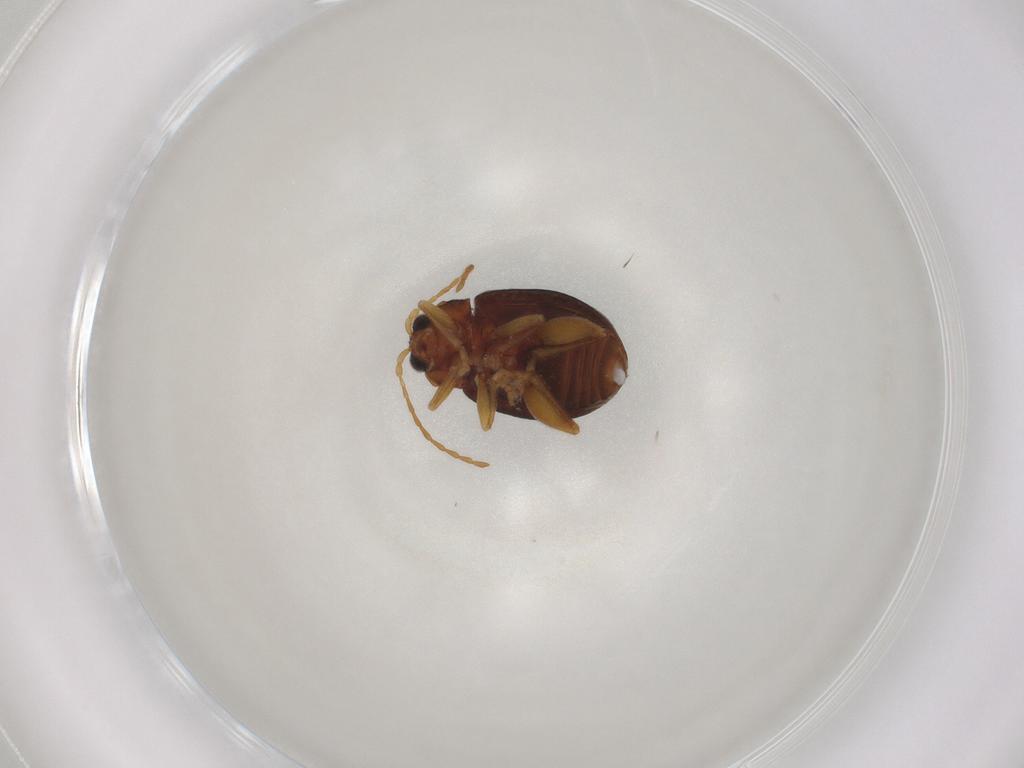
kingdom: Animalia
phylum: Arthropoda
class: Insecta
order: Coleoptera
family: Chrysomelidae
